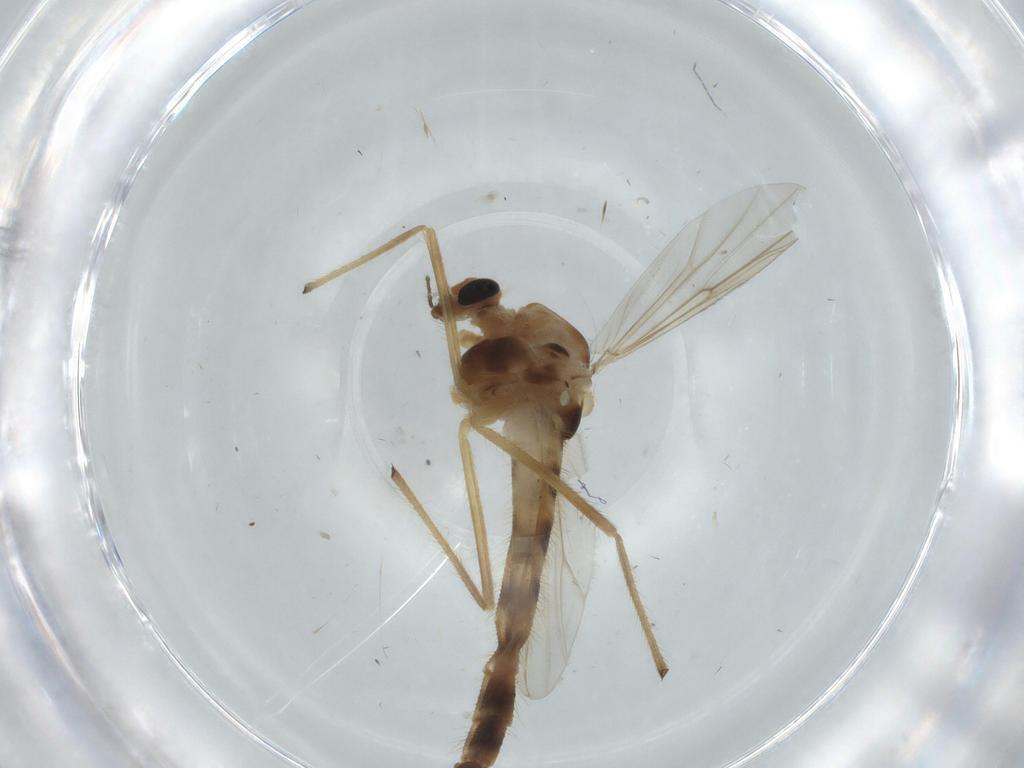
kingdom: Animalia
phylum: Arthropoda
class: Insecta
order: Diptera
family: Chironomidae
